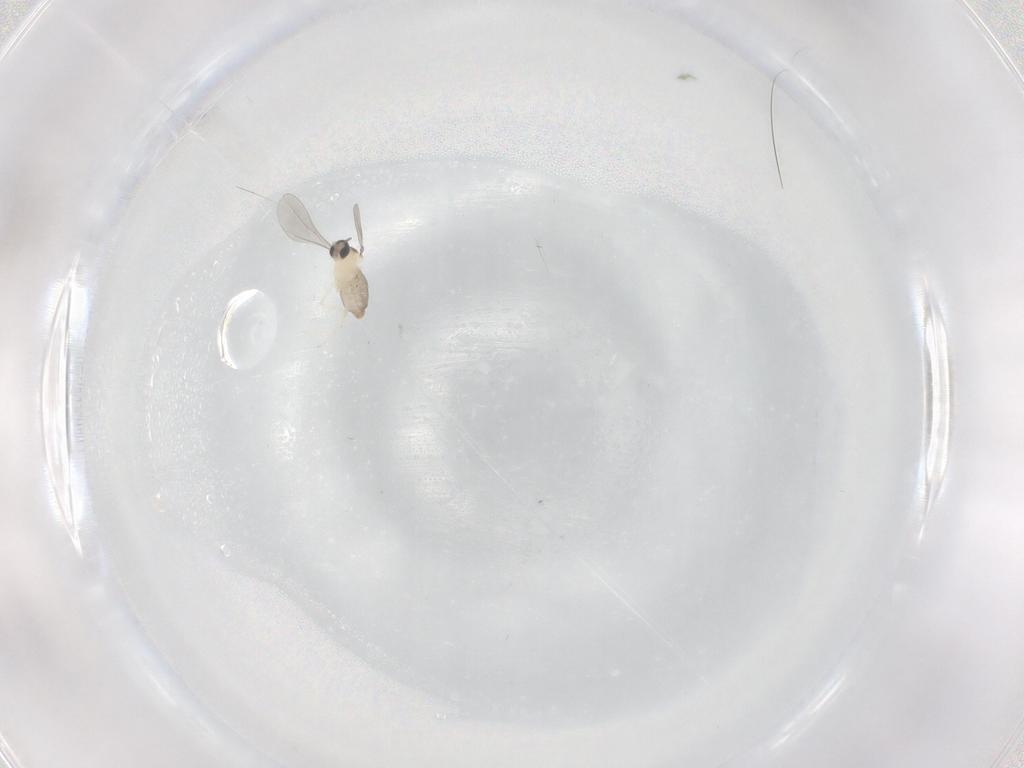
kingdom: Animalia
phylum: Arthropoda
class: Insecta
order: Diptera
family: Cecidomyiidae
